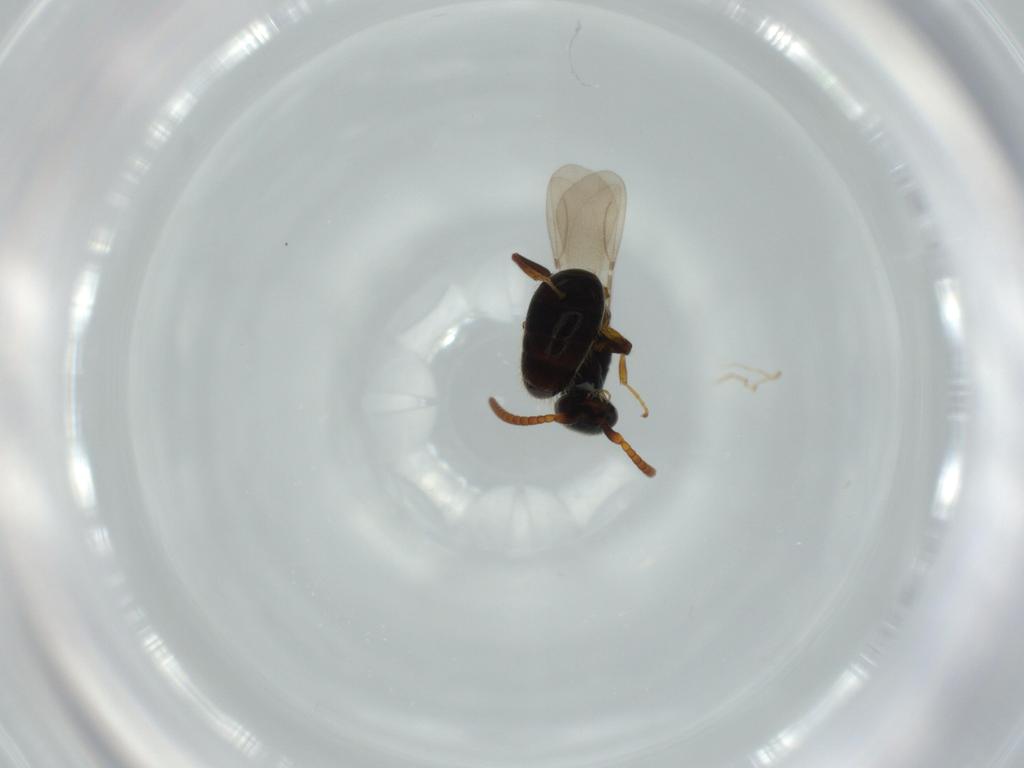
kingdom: Animalia
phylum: Arthropoda
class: Insecta
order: Hymenoptera
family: Bethylidae
